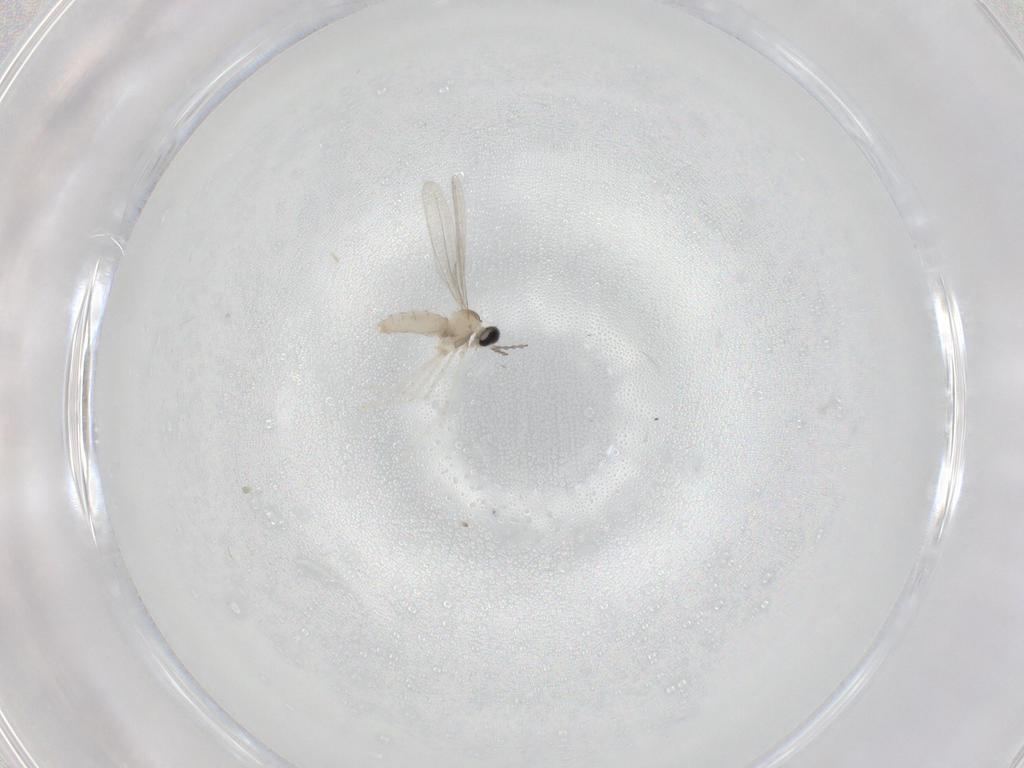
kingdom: Animalia
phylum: Arthropoda
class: Insecta
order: Diptera
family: Cecidomyiidae
